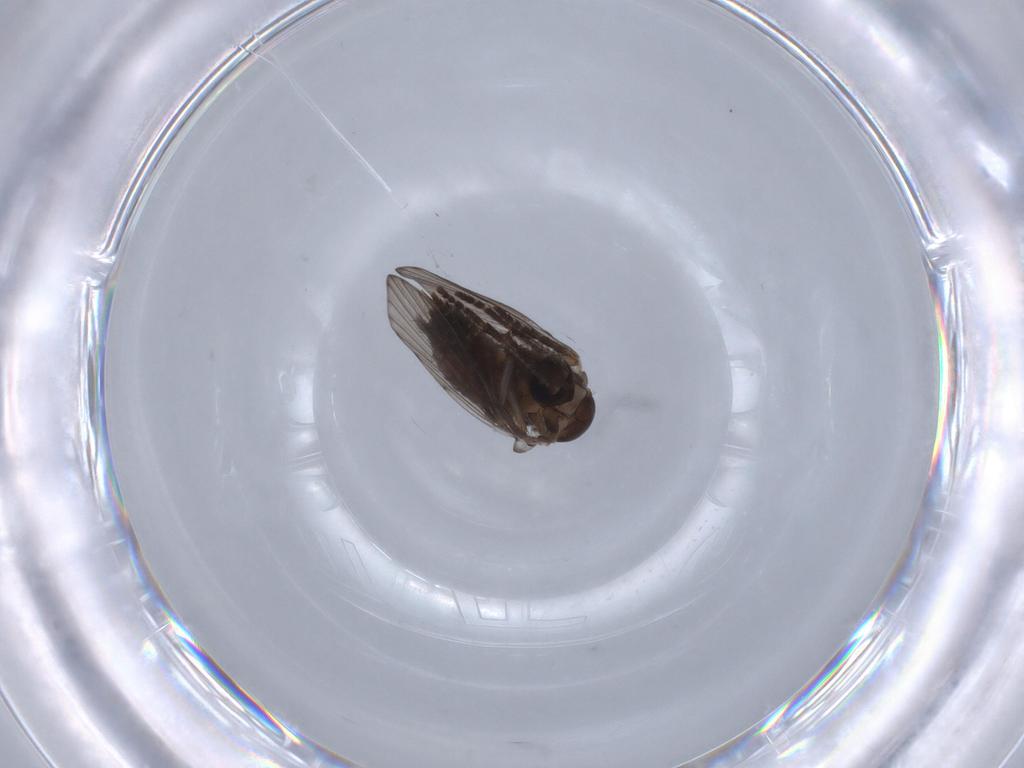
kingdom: Animalia
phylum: Arthropoda
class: Insecta
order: Diptera
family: Psychodidae
